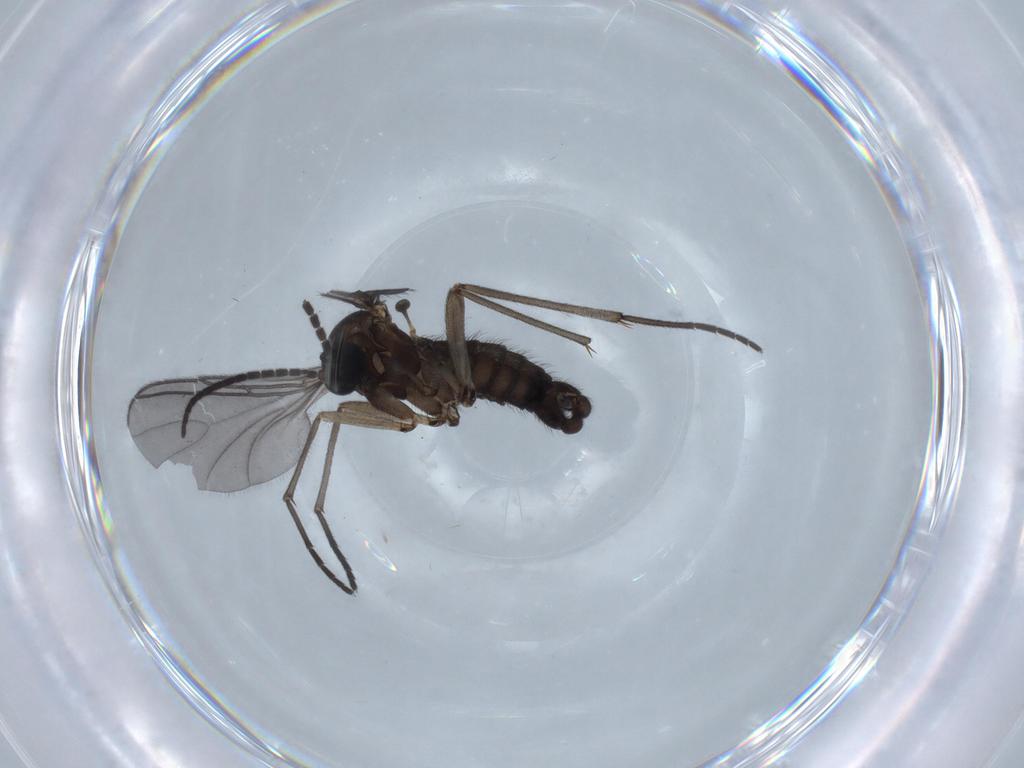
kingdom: Animalia
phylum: Arthropoda
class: Insecta
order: Diptera
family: Sciaridae
